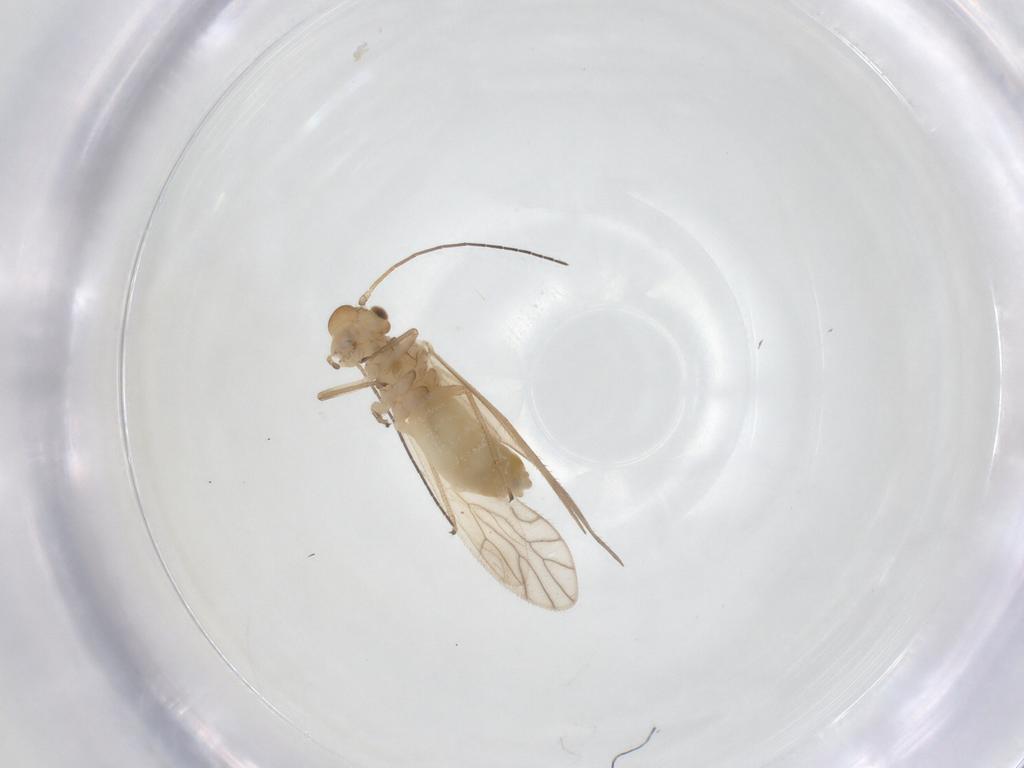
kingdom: Animalia
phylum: Arthropoda
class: Insecta
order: Psocodea
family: Caeciliusidae
